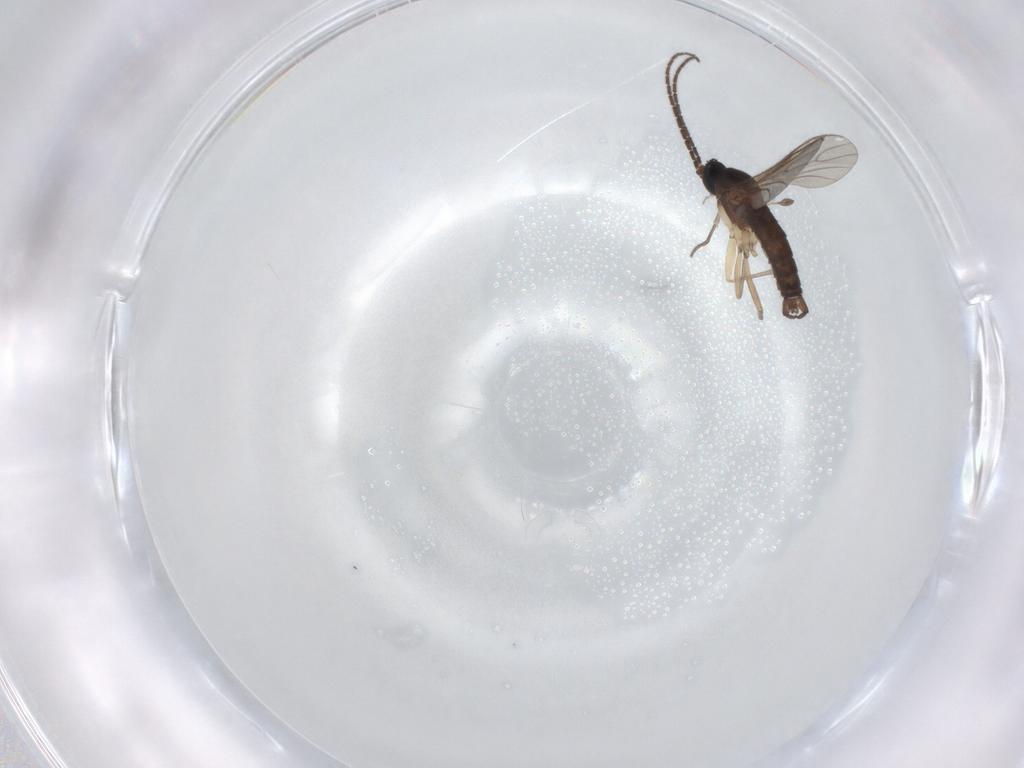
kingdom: Animalia
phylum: Arthropoda
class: Insecta
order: Diptera
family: Sciaridae
